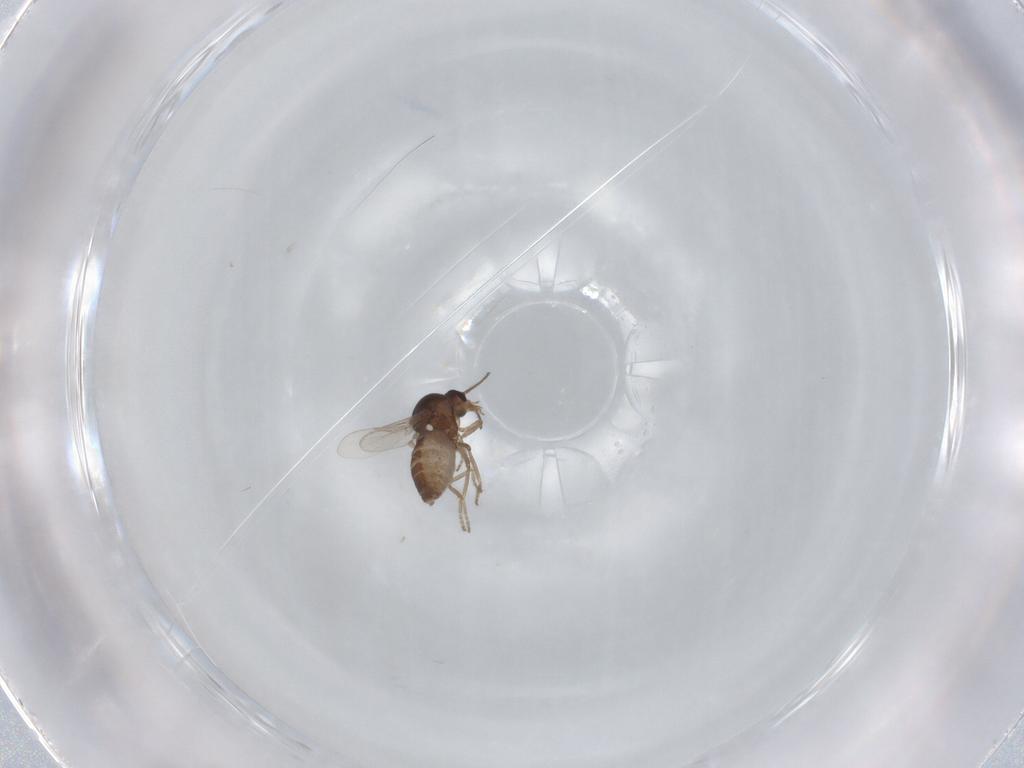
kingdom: Animalia
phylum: Arthropoda
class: Insecta
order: Diptera
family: Ceratopogonidae
